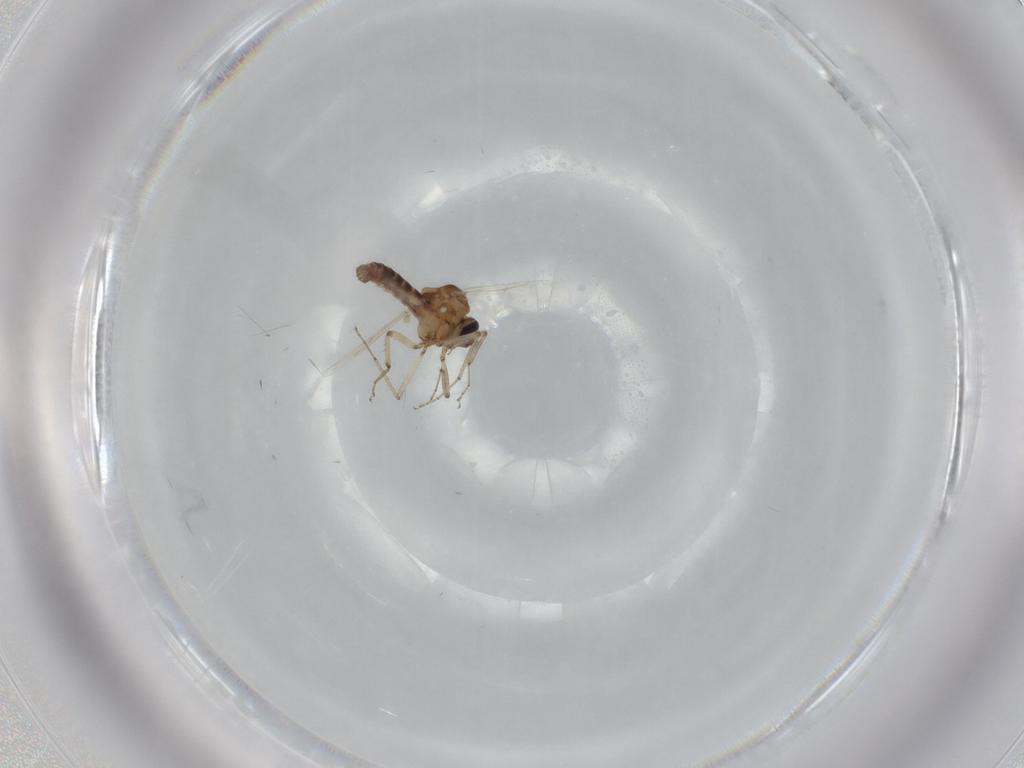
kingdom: Animalia
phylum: Arthropoda
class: Insecta
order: Diptera
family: Ceratopogonidae
